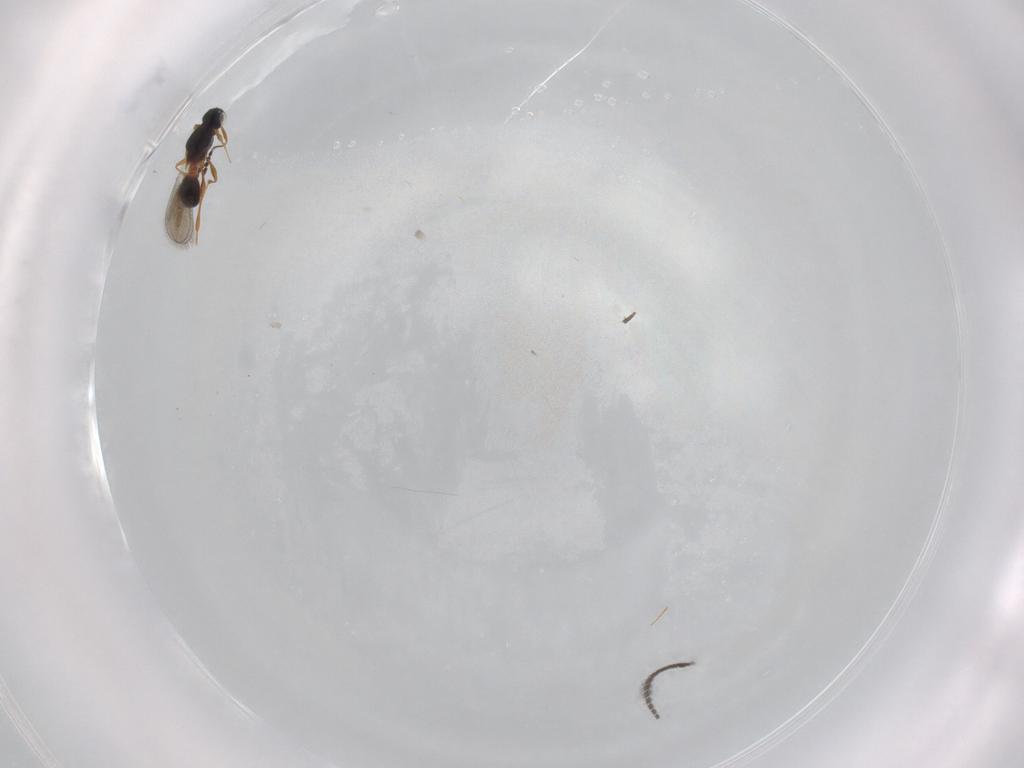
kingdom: Animalia
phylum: Arthropoda
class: Insecta
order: Hymenoptera
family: Platygastridae
